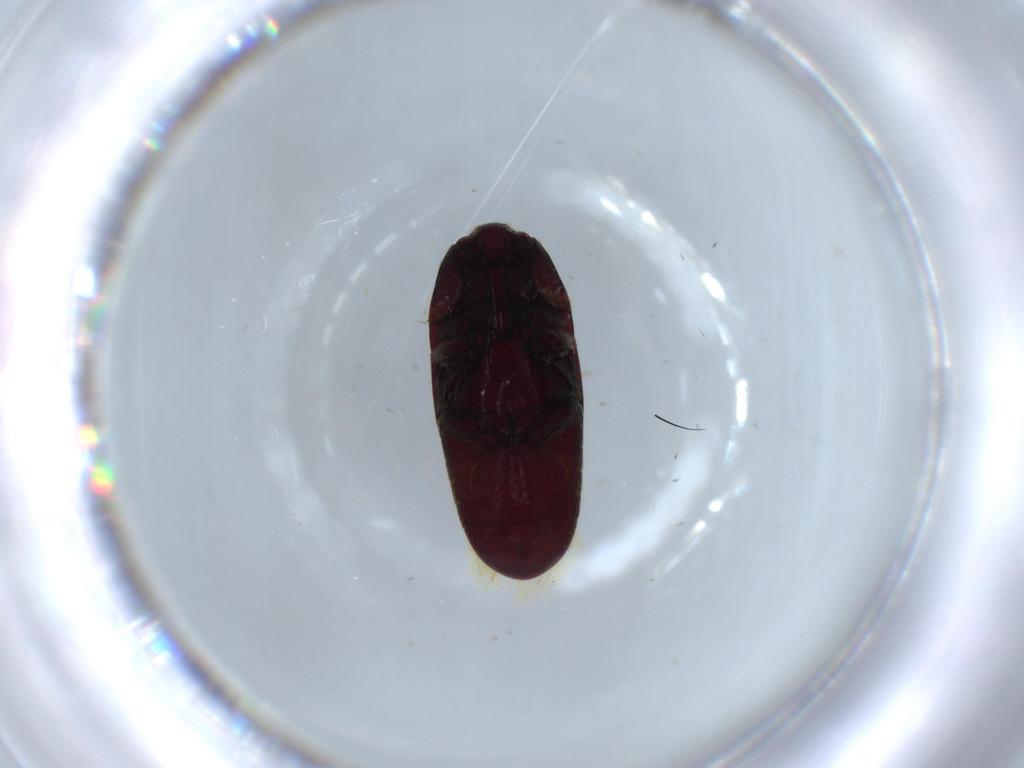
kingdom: Animalia
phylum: Arthropoda
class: Insecta
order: Coleoptera
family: Throscidae
